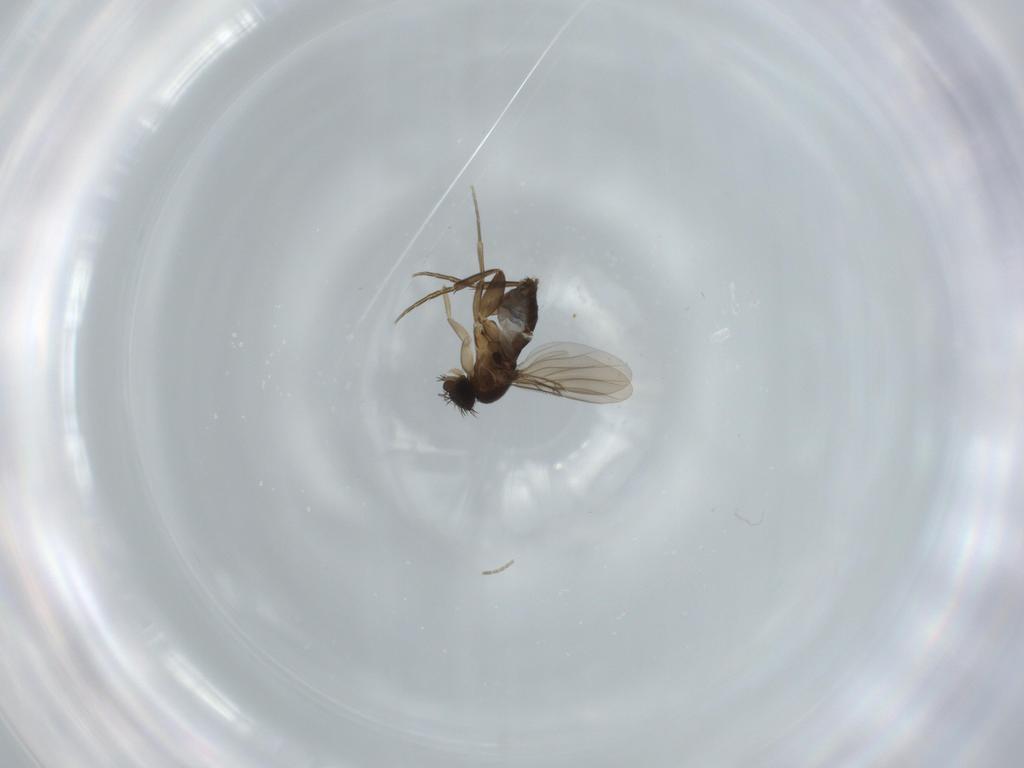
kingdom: Animalia
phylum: Arthropoda
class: Insecta
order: Diptera
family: Phoridae
